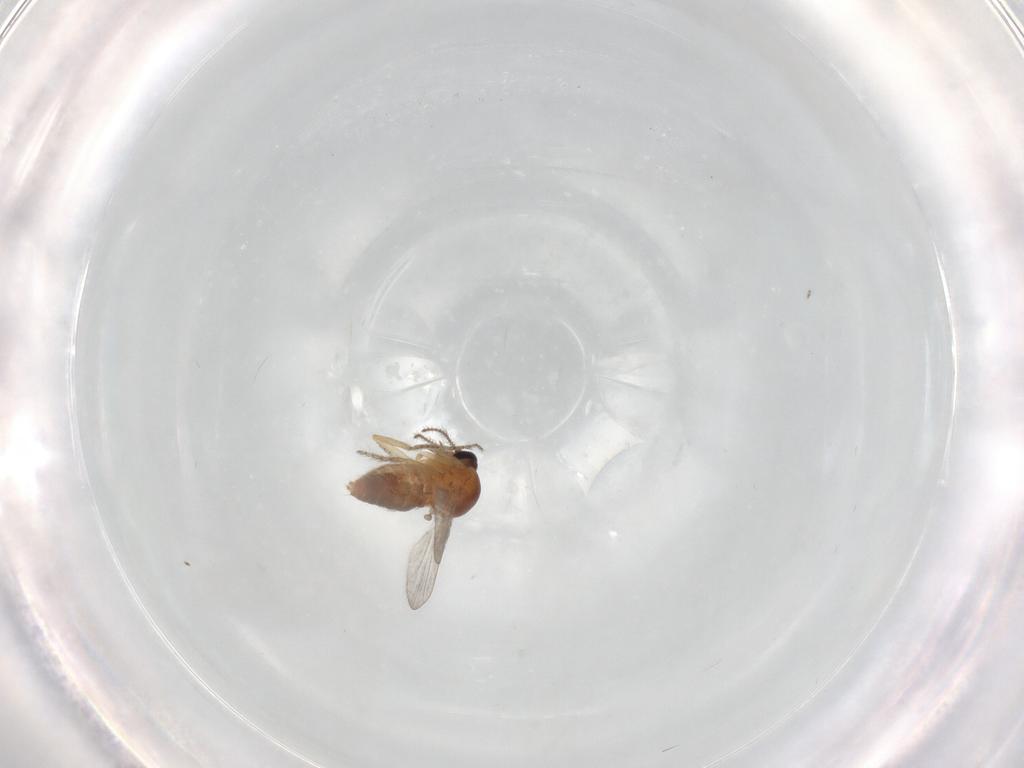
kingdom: Animalia
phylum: Arthropoda
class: Insecta
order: Diptera
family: Ceratopogonidae
